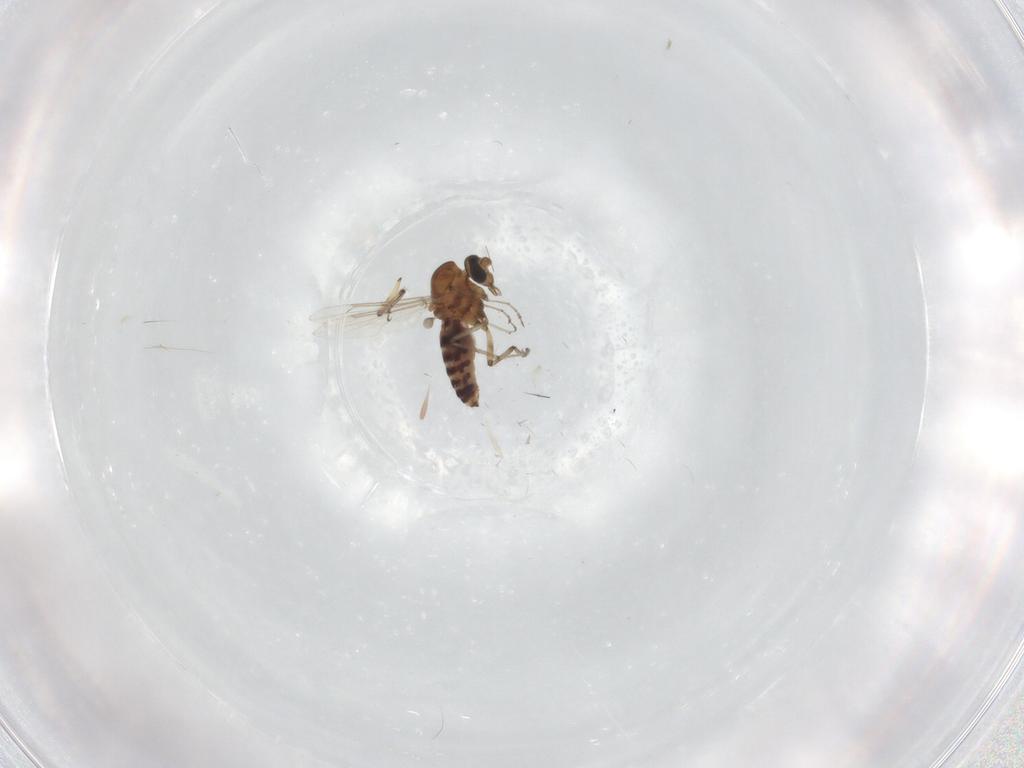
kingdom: Animalia
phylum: Arthropoda
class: Insecta
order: Diptera
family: Ceratopogonidae
